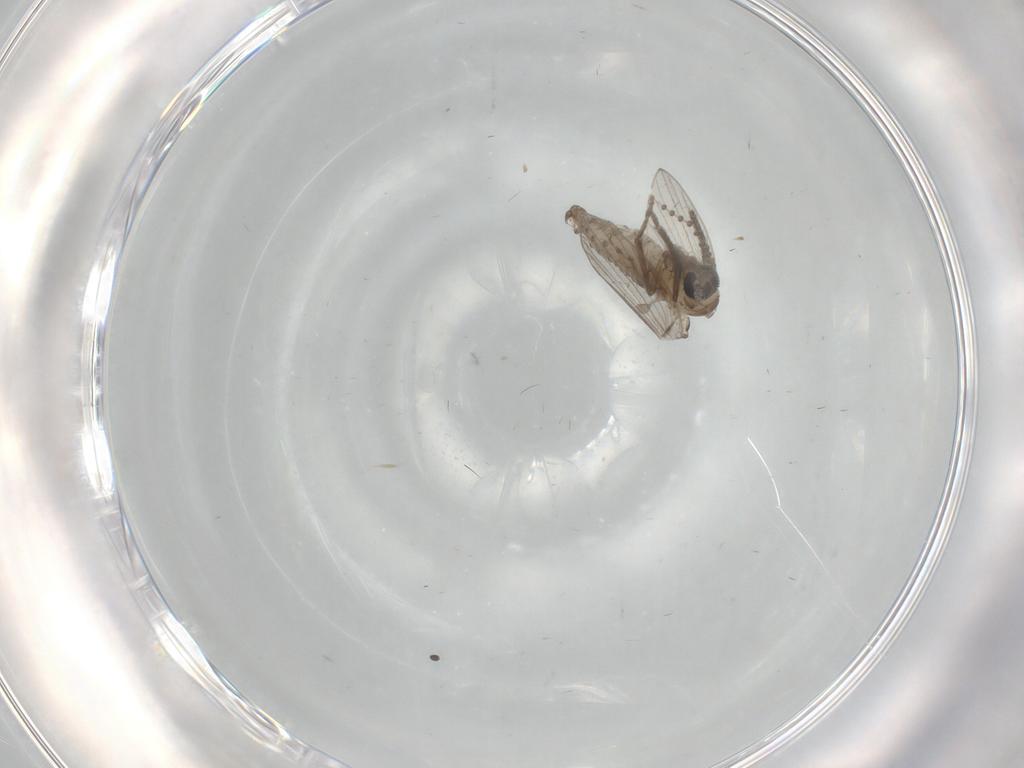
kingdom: Animalia
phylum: Arthropoda
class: Insecta
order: Diptera
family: Psychodidae
